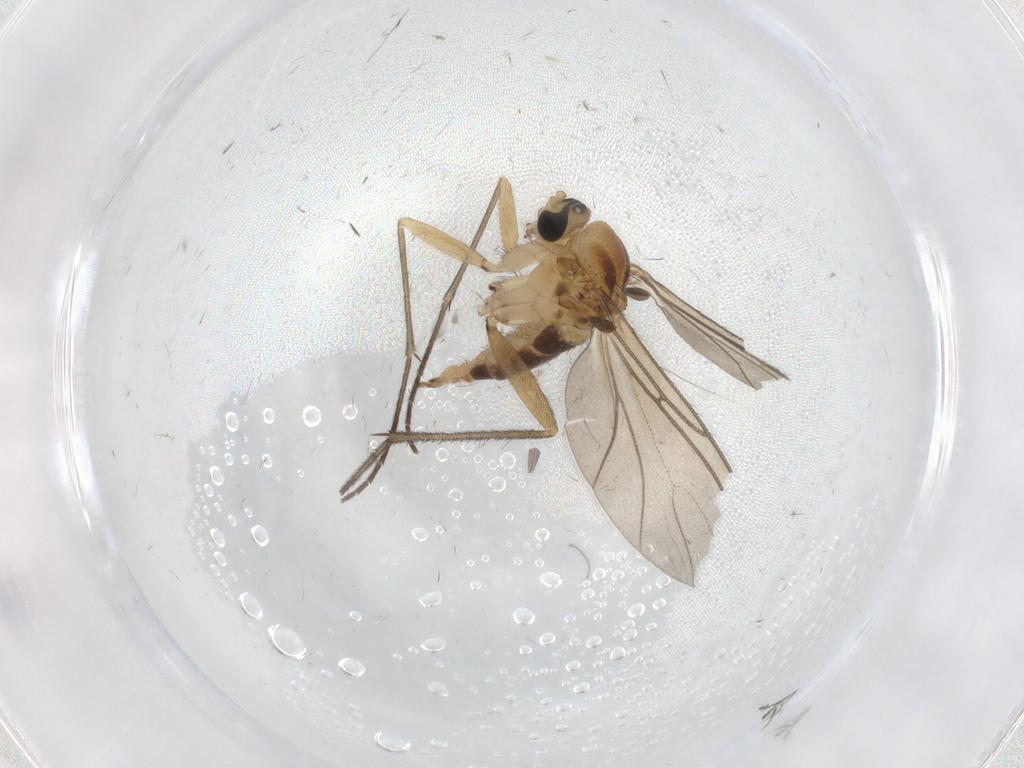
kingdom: Animalia
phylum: Arthropoda
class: Insecta
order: Diptera
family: Sciaridae
